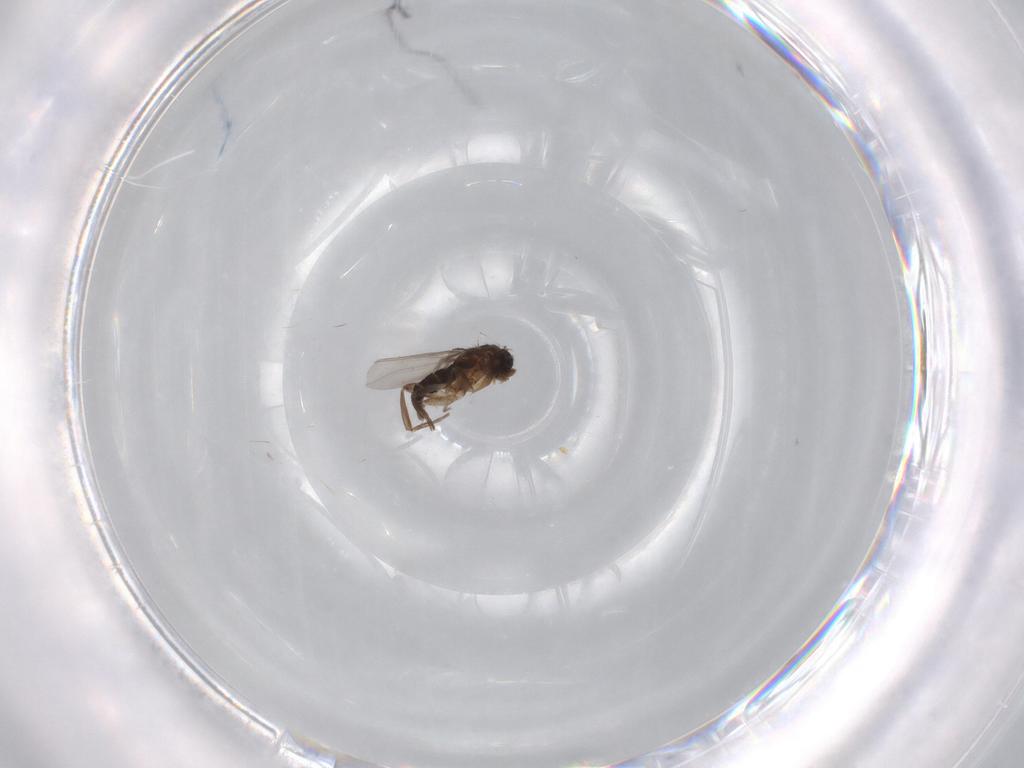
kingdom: Animalia
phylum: Arthropoda
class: Insecta
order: Diptera
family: Phoridae
